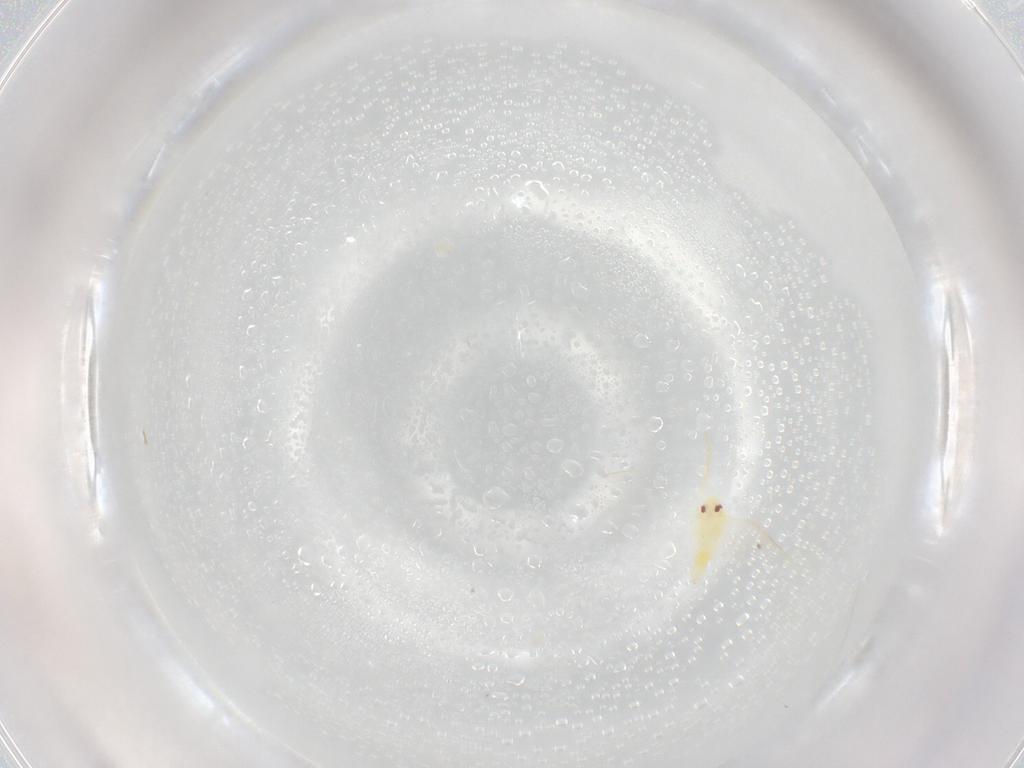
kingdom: Animalia
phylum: Arthropoda
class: Insecta
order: Hemiptera
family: Aleyrodidae
